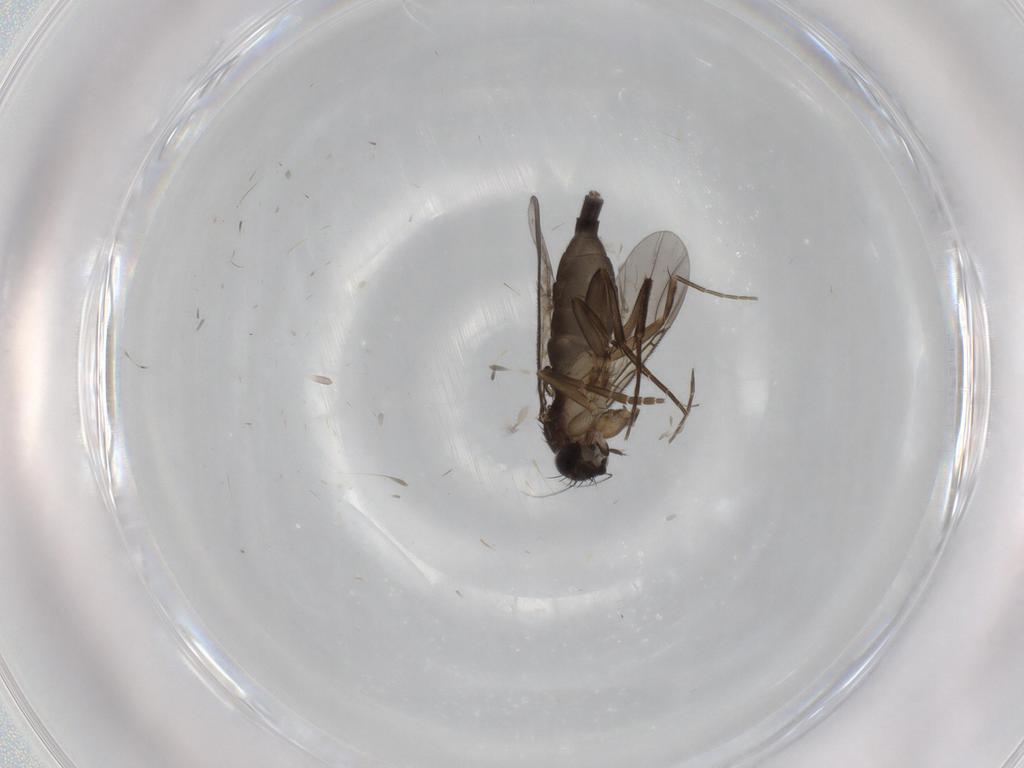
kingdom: Animalia
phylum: Arthropoda
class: Insecta
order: Diptera
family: Phoridae
